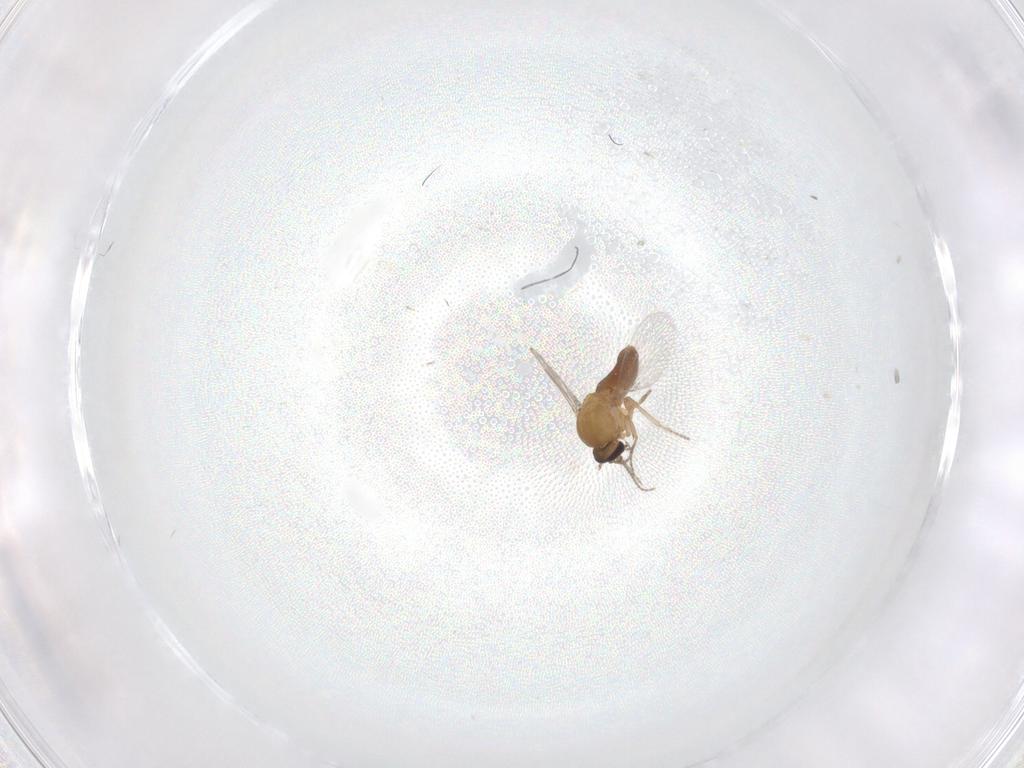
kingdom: Animalia
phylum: Arthropoda
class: Insecta
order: Diptera
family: Ceratopogonidae
